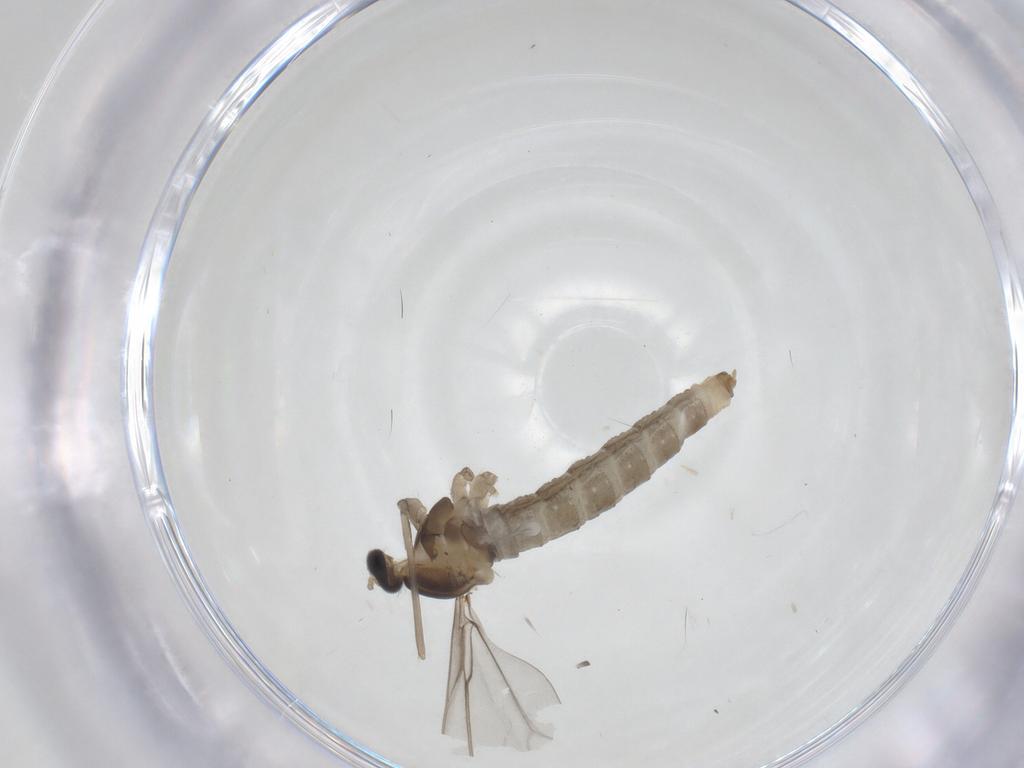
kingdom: Animalia
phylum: Arthropoda
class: Insecta
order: Diptera
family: Cecidomyiidae
